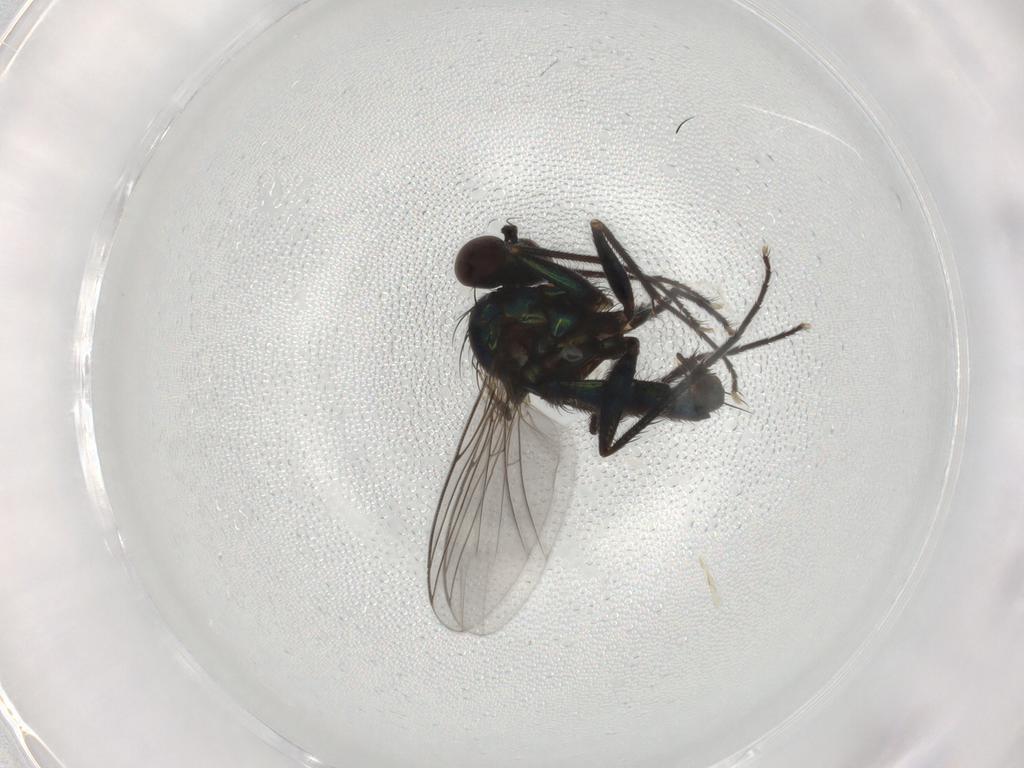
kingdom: Animalia
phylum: Arthropoda
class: Insecta
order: Diptera
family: Dolichopodidae
